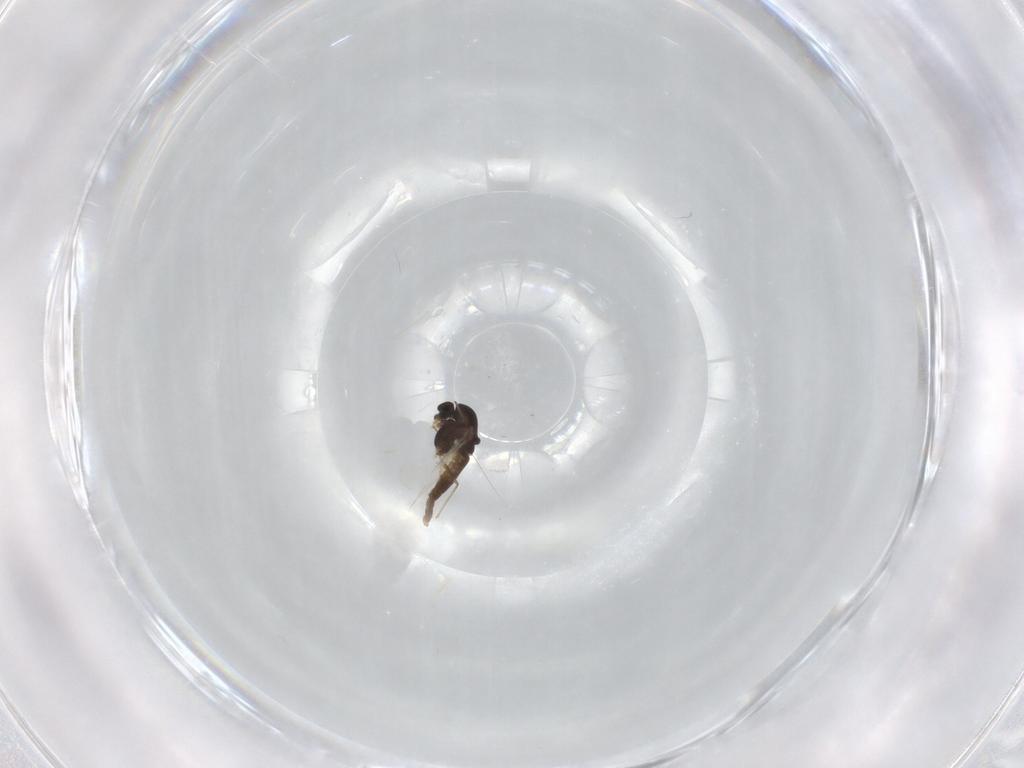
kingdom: Animalia
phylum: Arthropoda
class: Insecta
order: Diptera
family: Chironomidae
